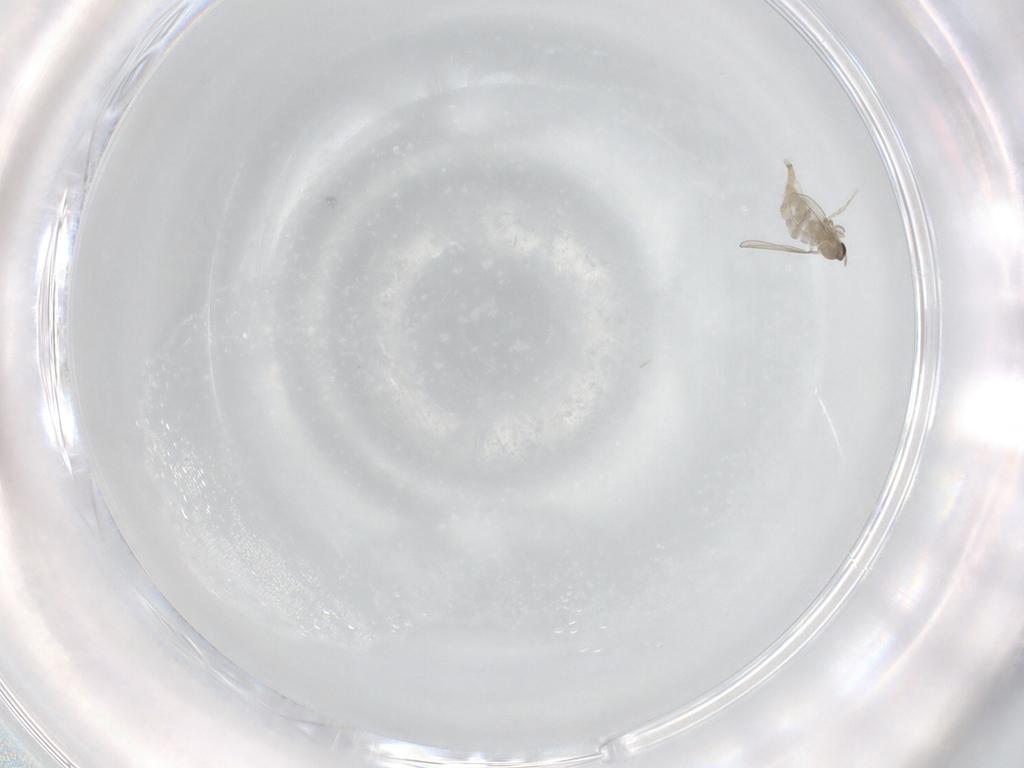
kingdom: Animalia
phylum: Arthropoda
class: Insecta
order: Diptera
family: Cecidomyiidae
